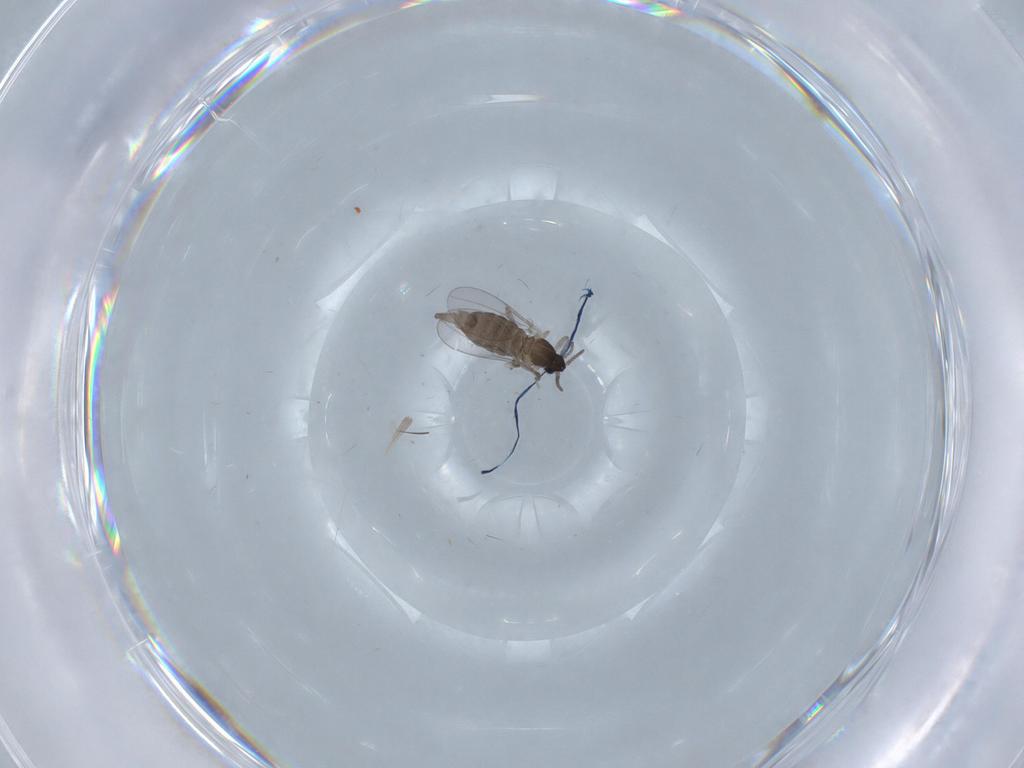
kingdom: Animalia
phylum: Arthropoda
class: Insecta
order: Diptera
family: Cecidomyiidae
